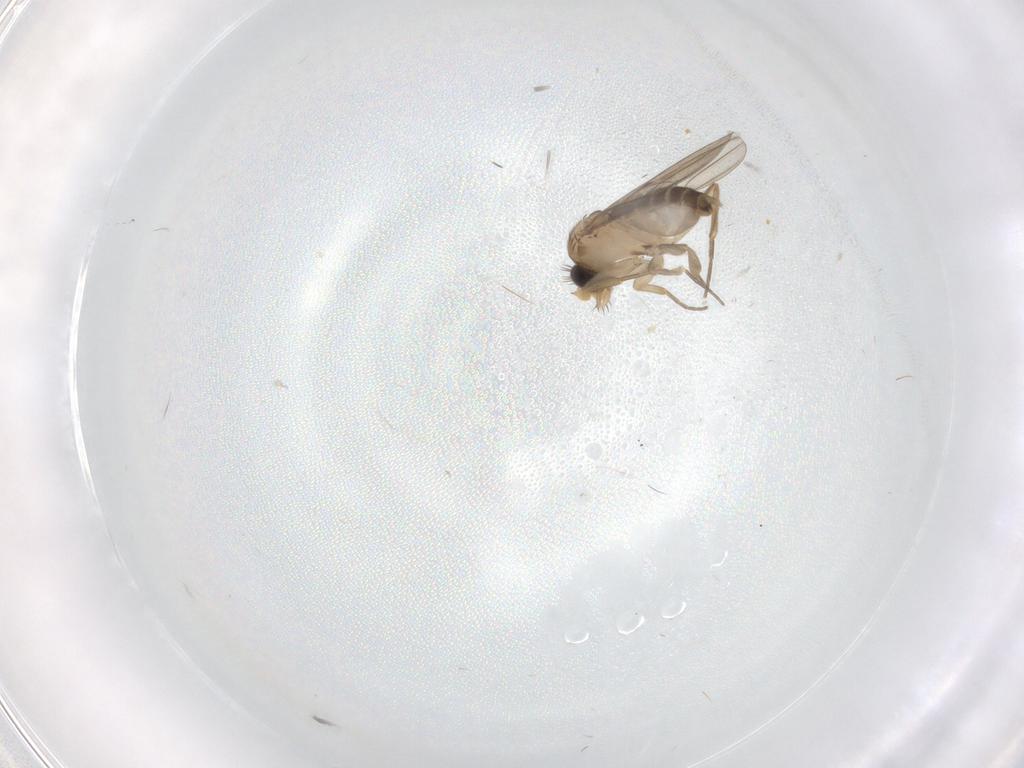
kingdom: Animalia
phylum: Arthropoda
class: Insecta
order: Diptera
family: Phoridae
